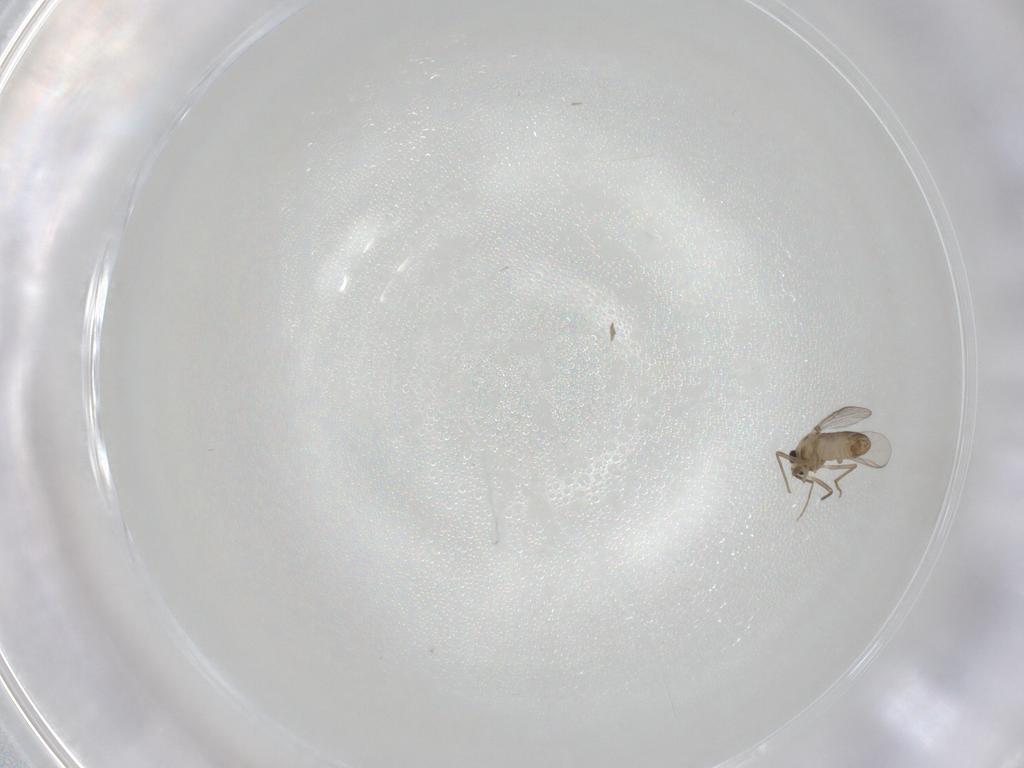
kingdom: Animalia
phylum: Arthropoda
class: Insecta
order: Diptera
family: Chironomidae
